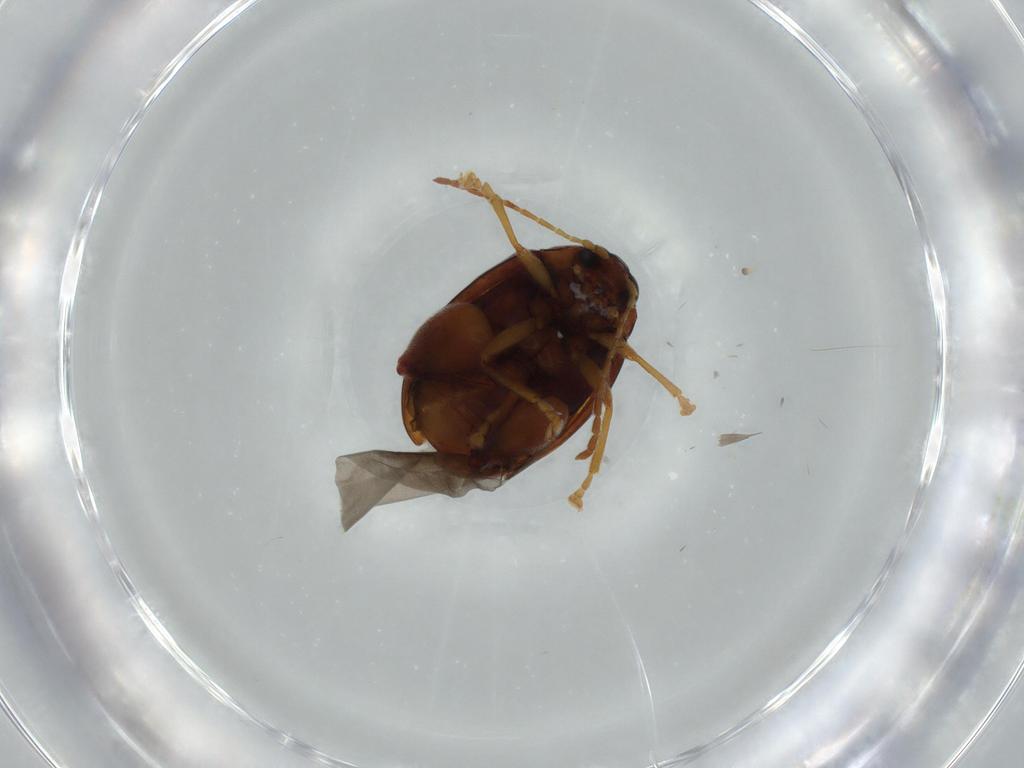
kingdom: Animalia
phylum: Arthropoda
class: Insecta
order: Coleoptera
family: Chrysomelidae
